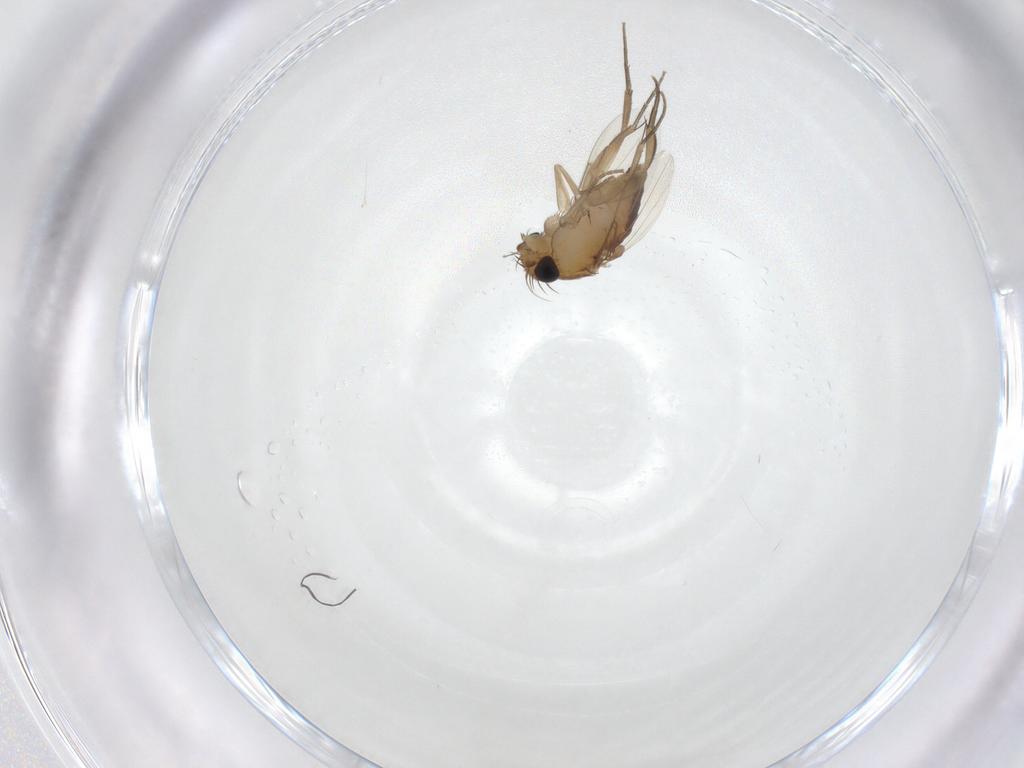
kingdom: Animalia
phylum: Arthropoda
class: Insecta
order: Diptera
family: Phoridae
